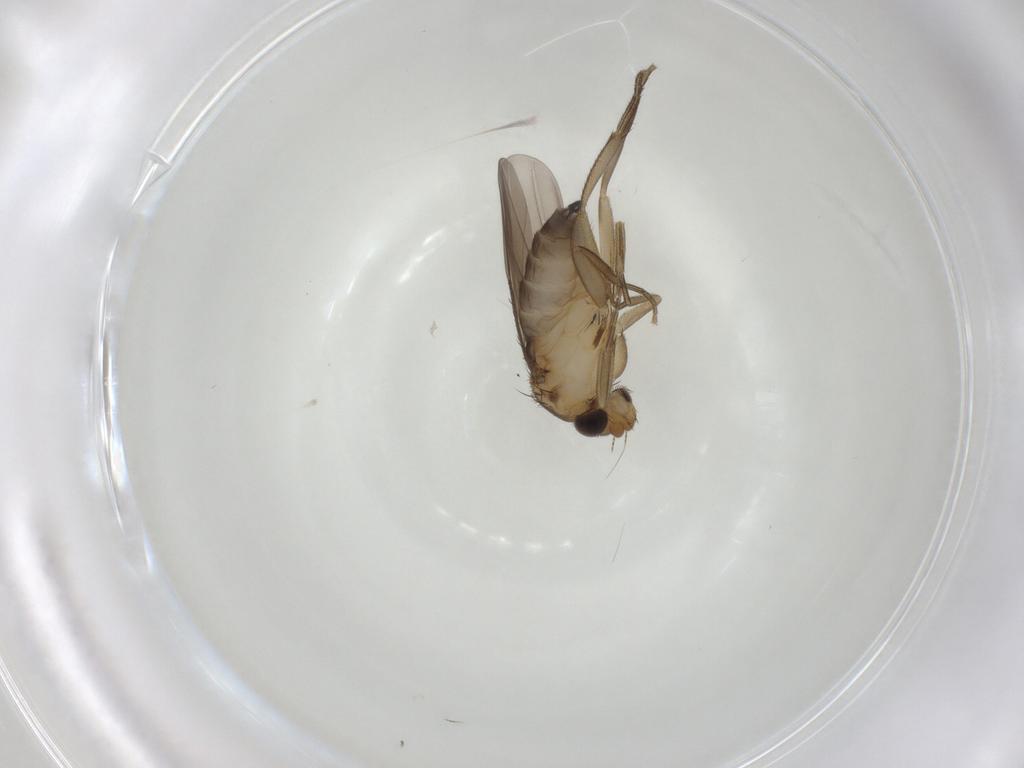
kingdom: Animalia
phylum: Arthropoda
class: Insecta
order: Diptera
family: Phoridae
